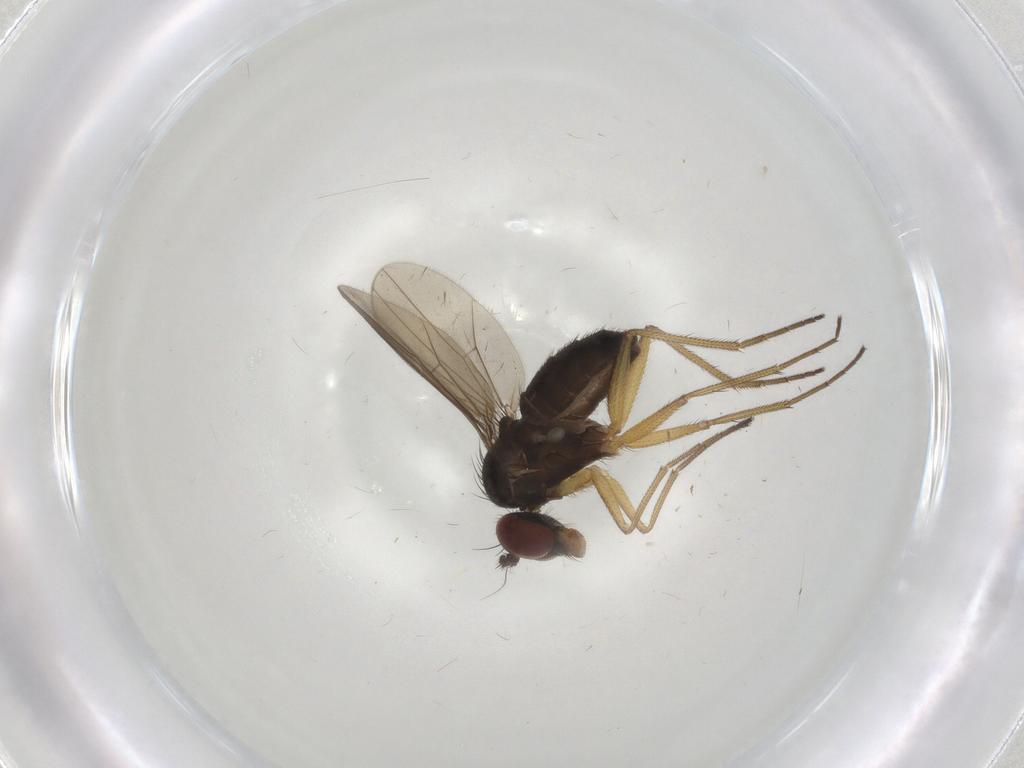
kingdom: Animalia
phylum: Arthropoda
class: Insecta
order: Diptera
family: Dolichopodidae
